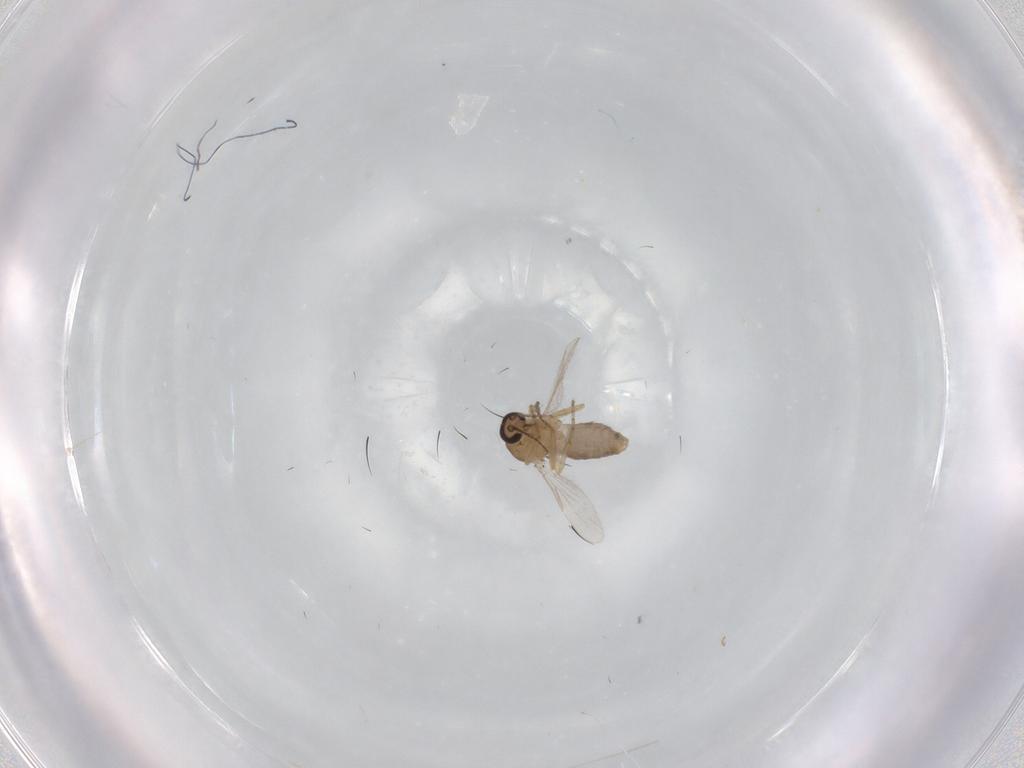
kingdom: Animalia
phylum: Arthropoda
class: Insecta
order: Diptera
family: Ceratopogonidae
